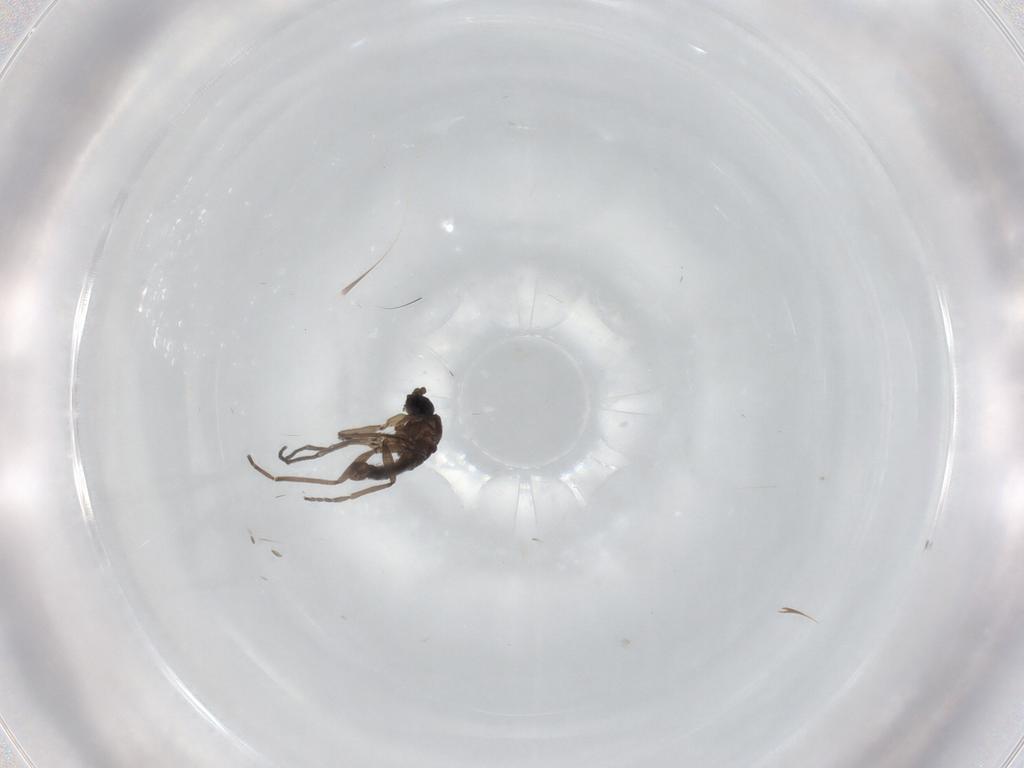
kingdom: Animalia
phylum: Arthropoda
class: Insecta
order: Diptera
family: Sciaridae
